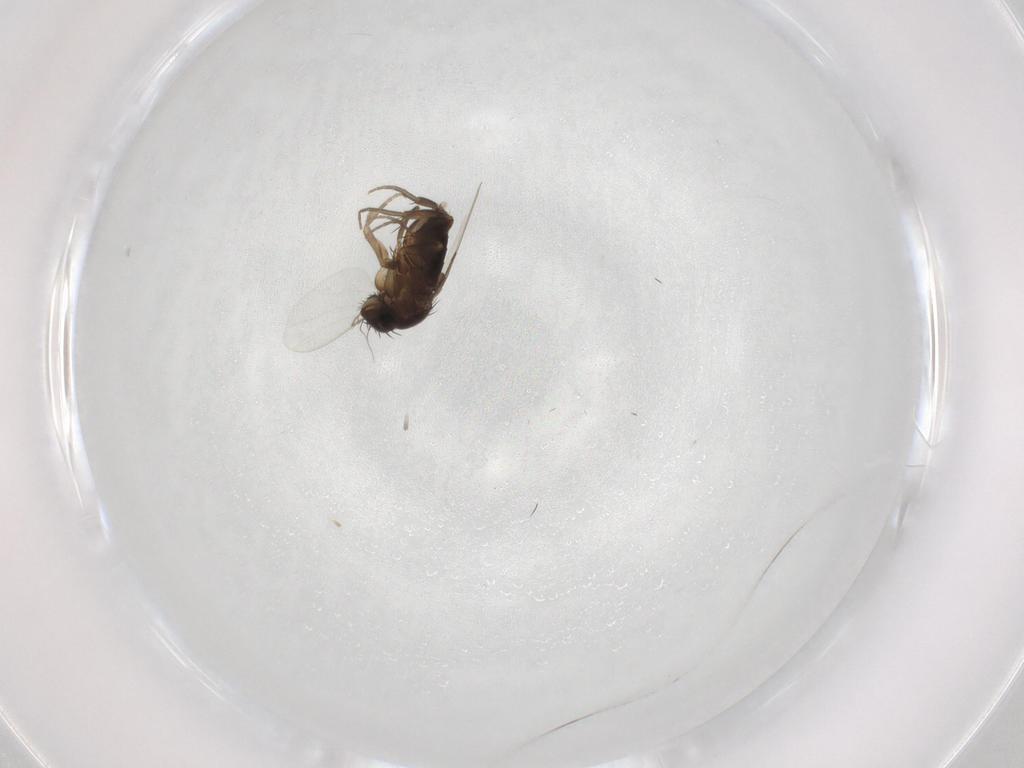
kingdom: Animalia
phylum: Arthropoda
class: Insecta
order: Diptera
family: Phoridae
